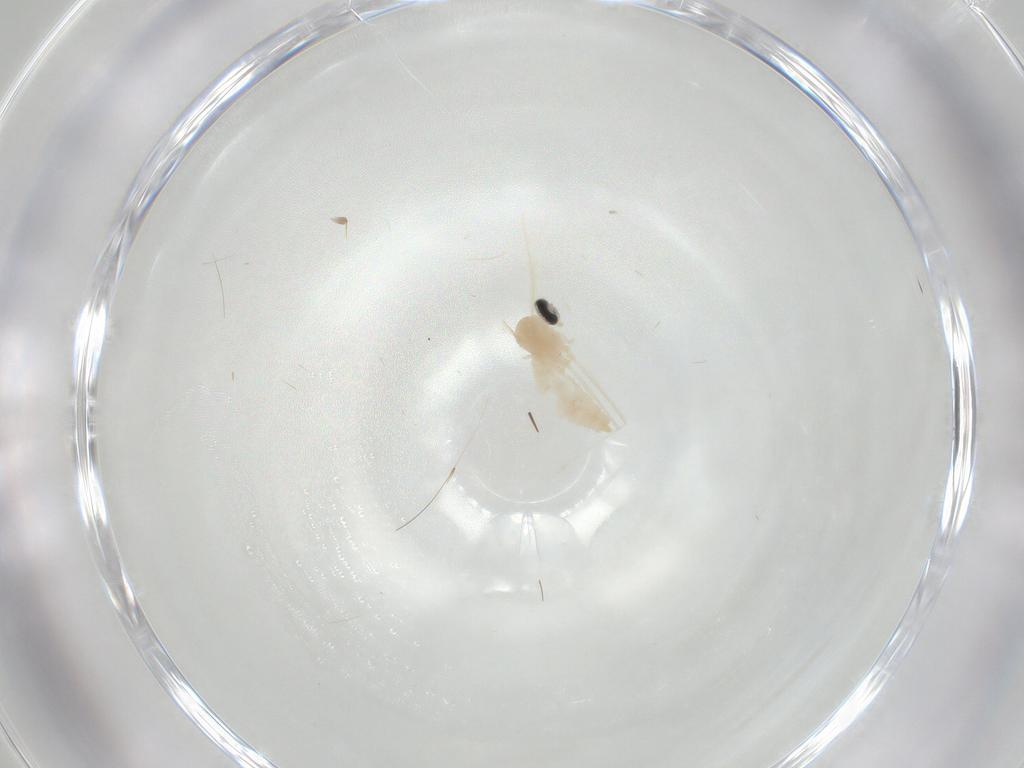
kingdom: Animalia
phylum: Arthropoda
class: Insecta
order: Diptera
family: Cecidomyiidae
